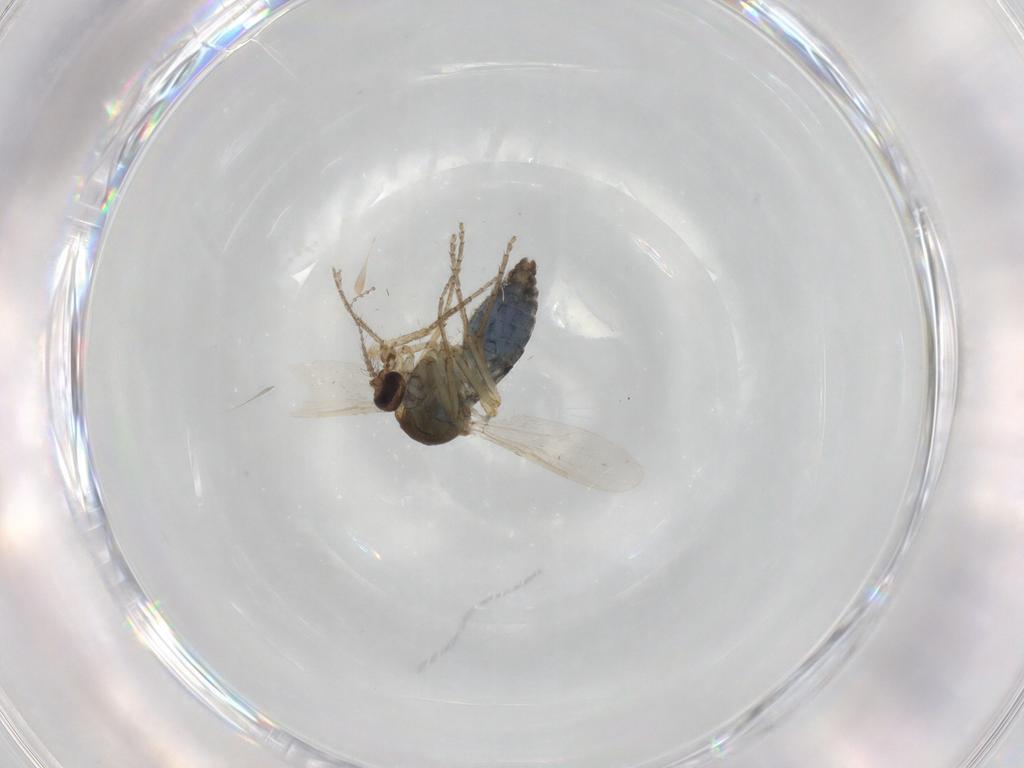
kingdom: Animalia
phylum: Arthropoda
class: Insecta
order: Diptera
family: Ceratopogonidae
